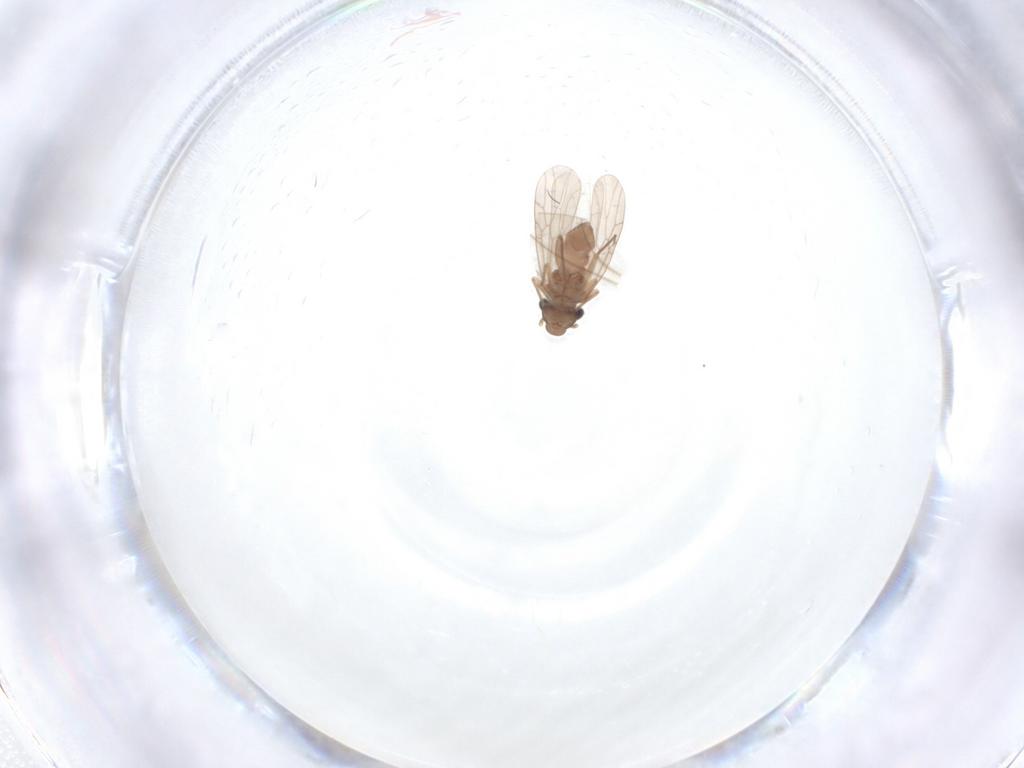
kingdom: Animalia
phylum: Arthropoda
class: Insecta
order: Psocodea
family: Lepidopsocidae
